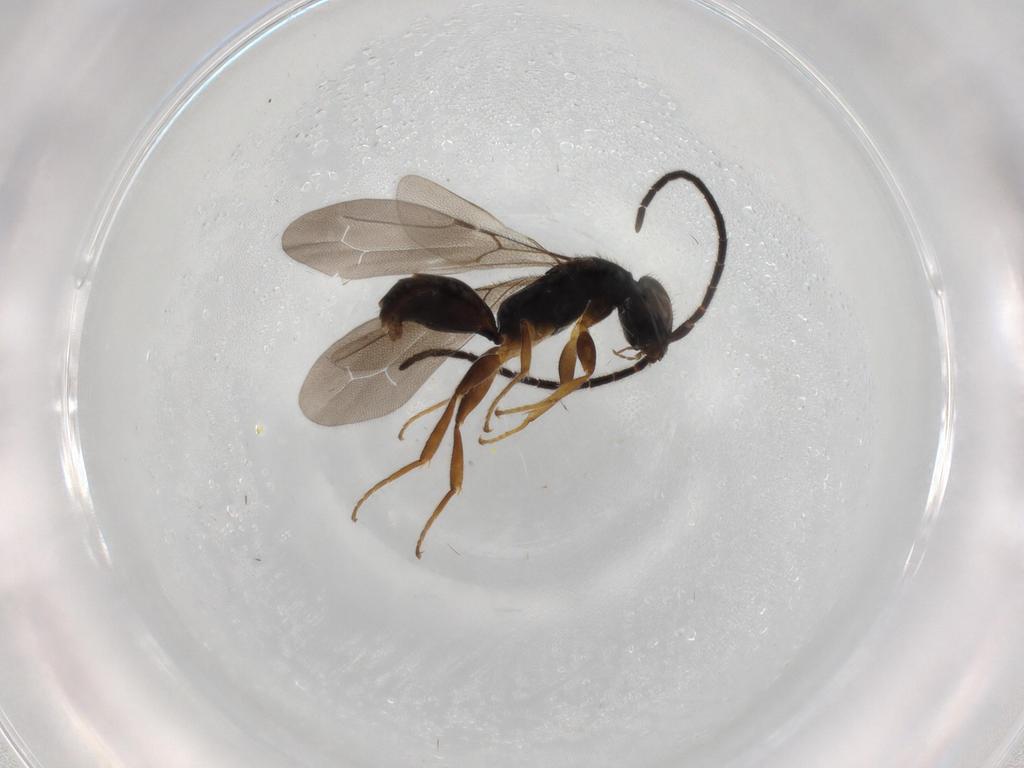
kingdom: Animalia
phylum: Arthropoda
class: Insecta
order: Hymenoptera
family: Bethylidae
